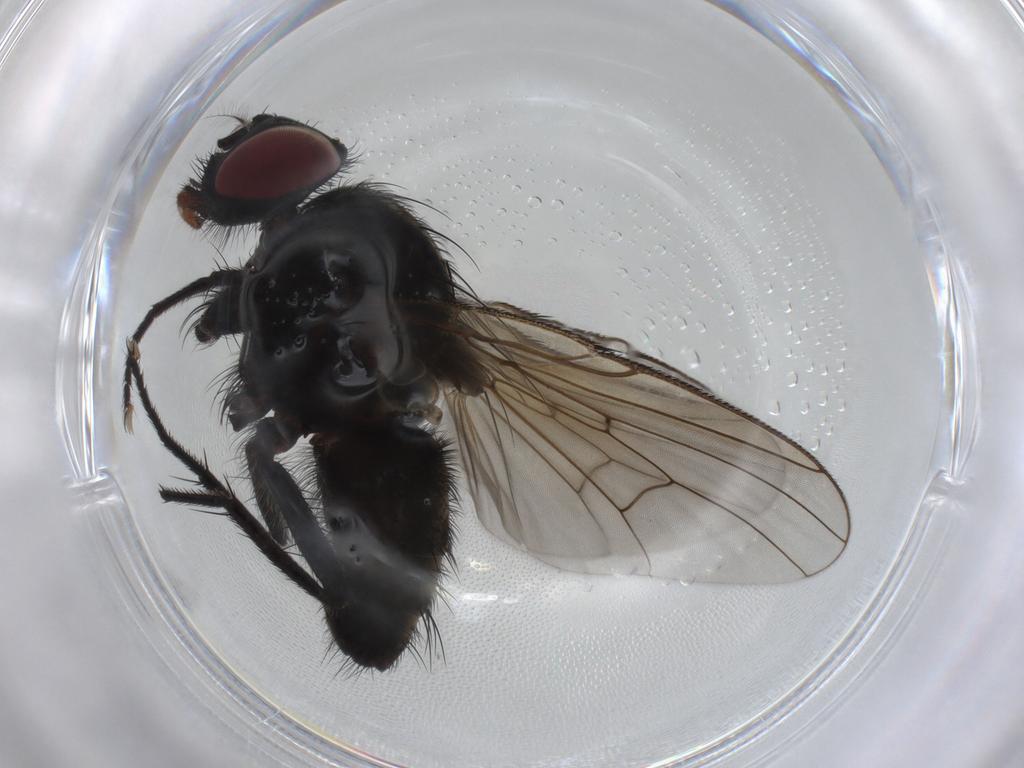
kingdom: Animalia
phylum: Arthropoda
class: Insecta
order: Diptera
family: Muscidae
